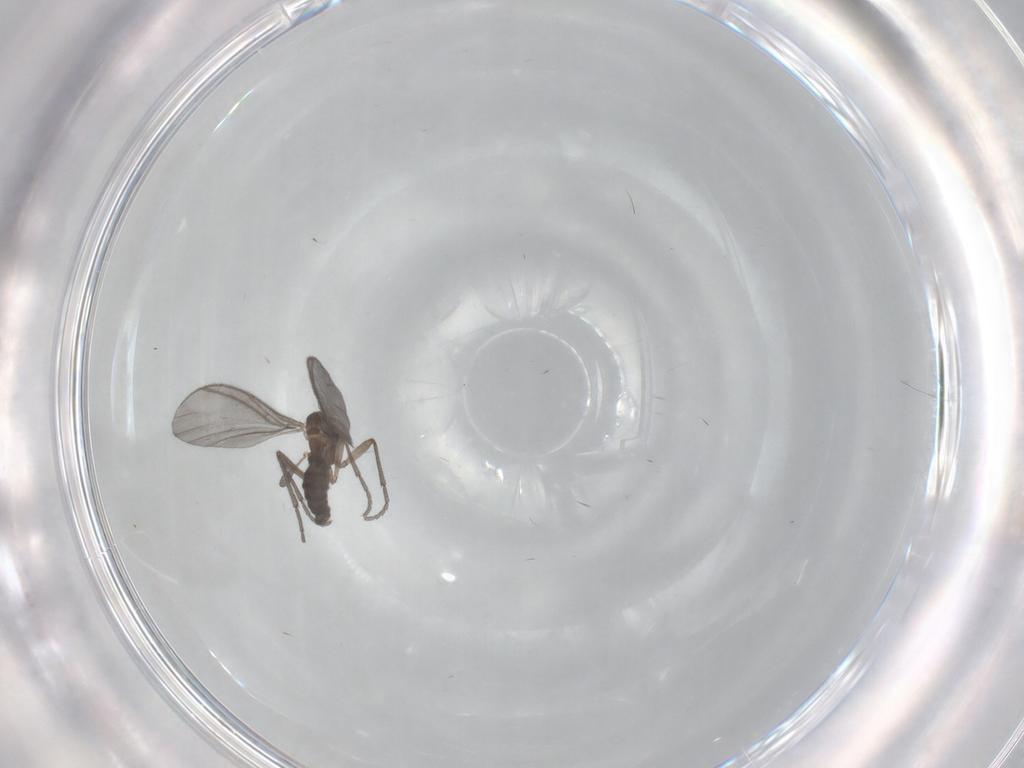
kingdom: Animalia
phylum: Arthropoda
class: Insecta
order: Diptera
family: Sciaridae
